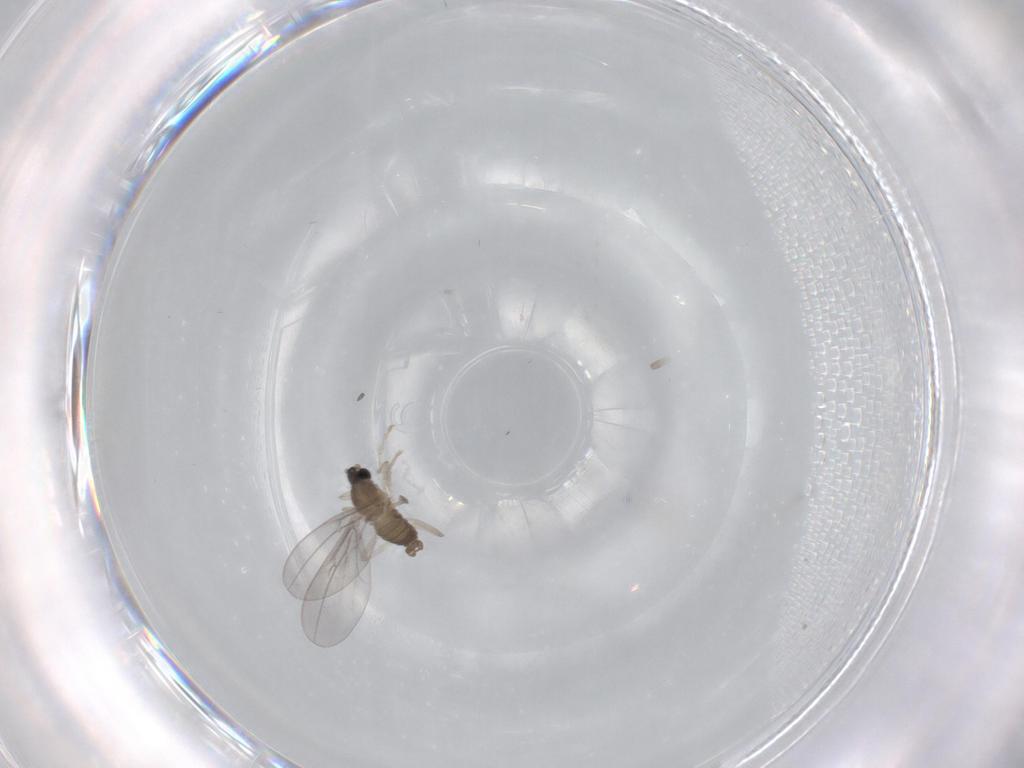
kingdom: Animalia
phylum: Arthropoda
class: Insecta
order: Diptera
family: Cecidomyiidae
